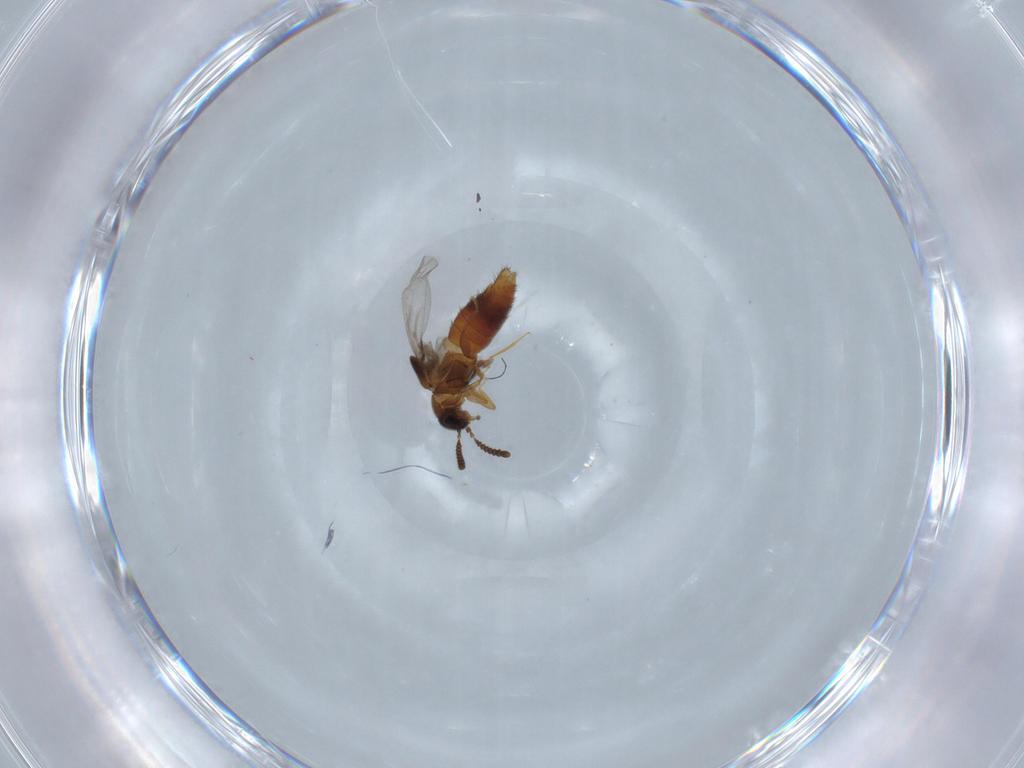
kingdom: Animalia
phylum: Arthropoda
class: Insecta
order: Coleoptera
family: Staphylinidae
